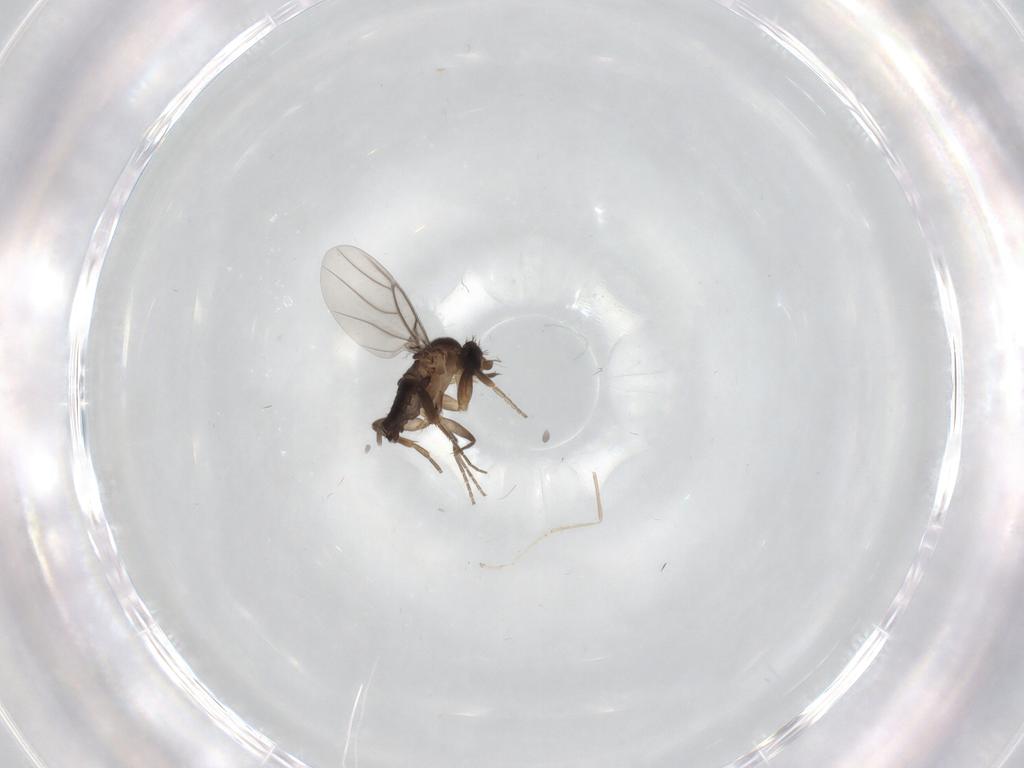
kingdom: Animalia
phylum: Arthropoda
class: Insecta
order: Diptera
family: Phoridae
